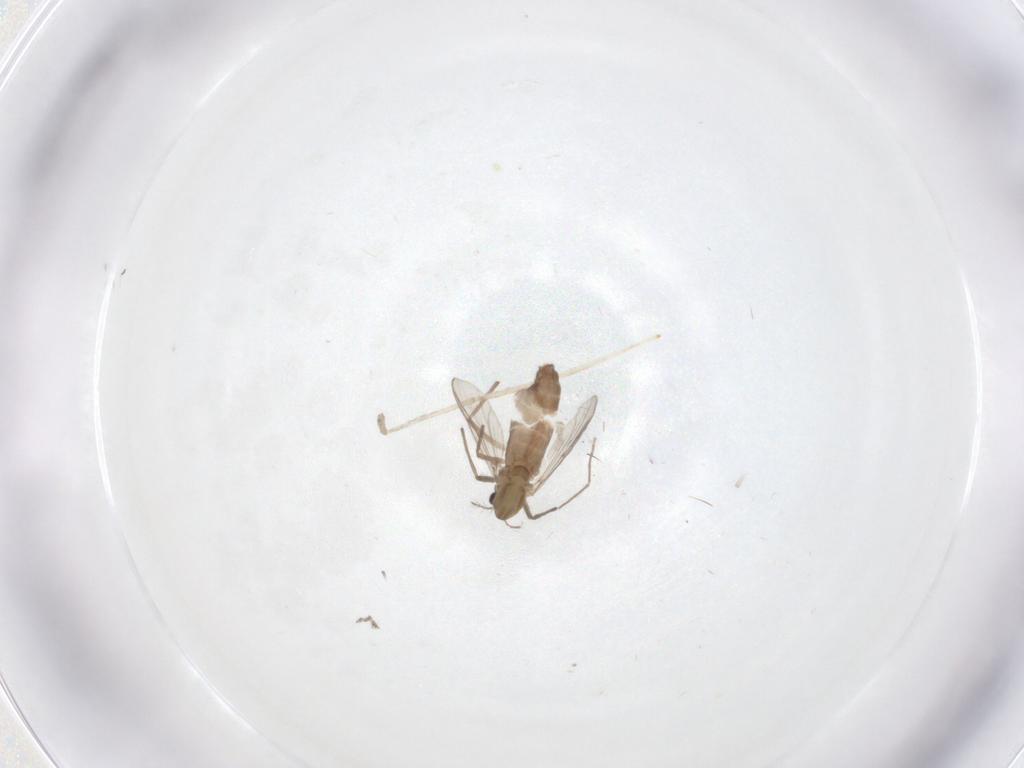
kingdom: Animalia
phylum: Arthropoda
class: Insecta
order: Diptera
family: Chironomidae
